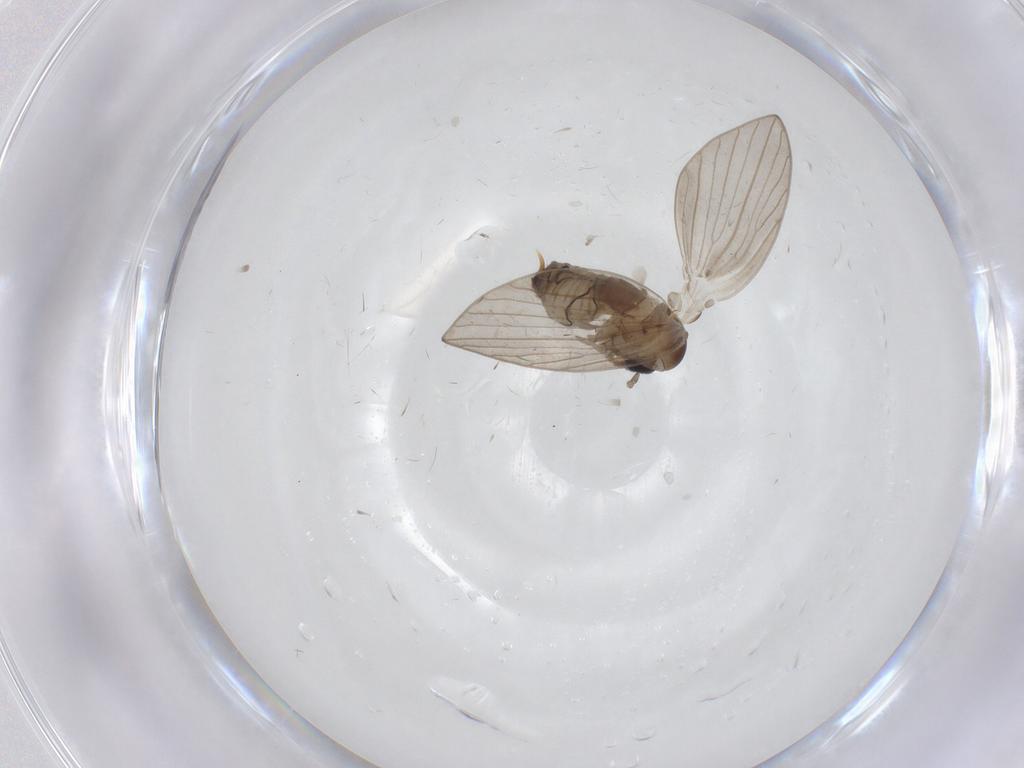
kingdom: Animalia
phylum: Arthropoda
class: Insecta
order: Diptera
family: Psychodidae
